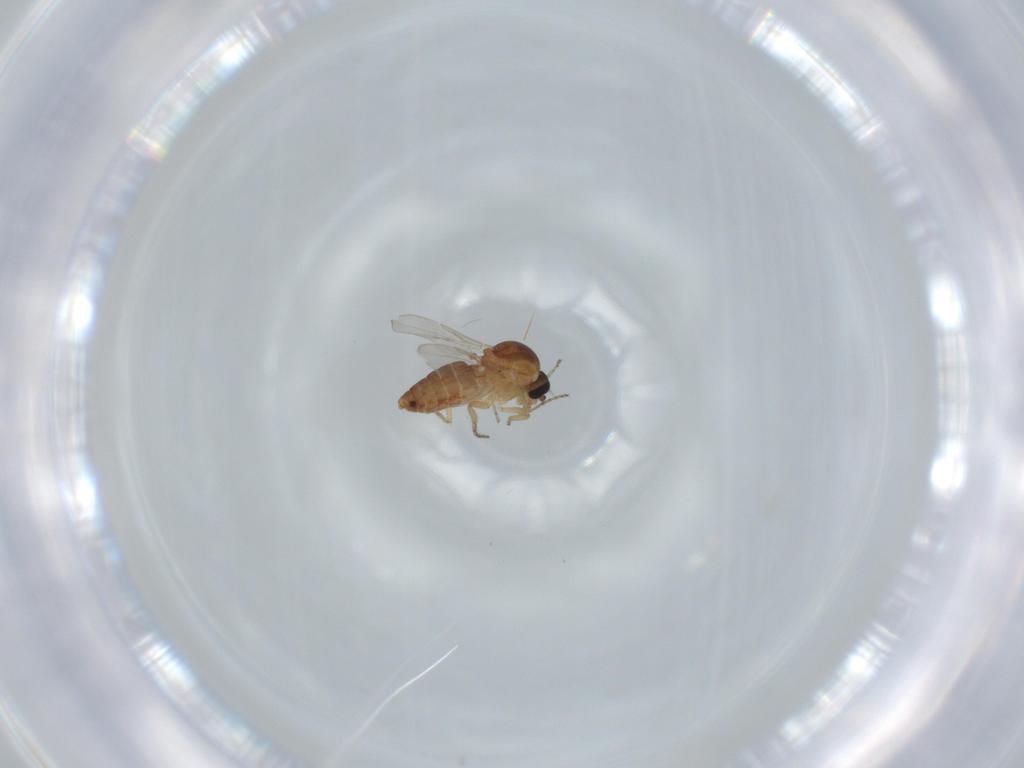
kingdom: Animalia
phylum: Arthropoda
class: Insecta
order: Diptera
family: Ceratopogonidae
